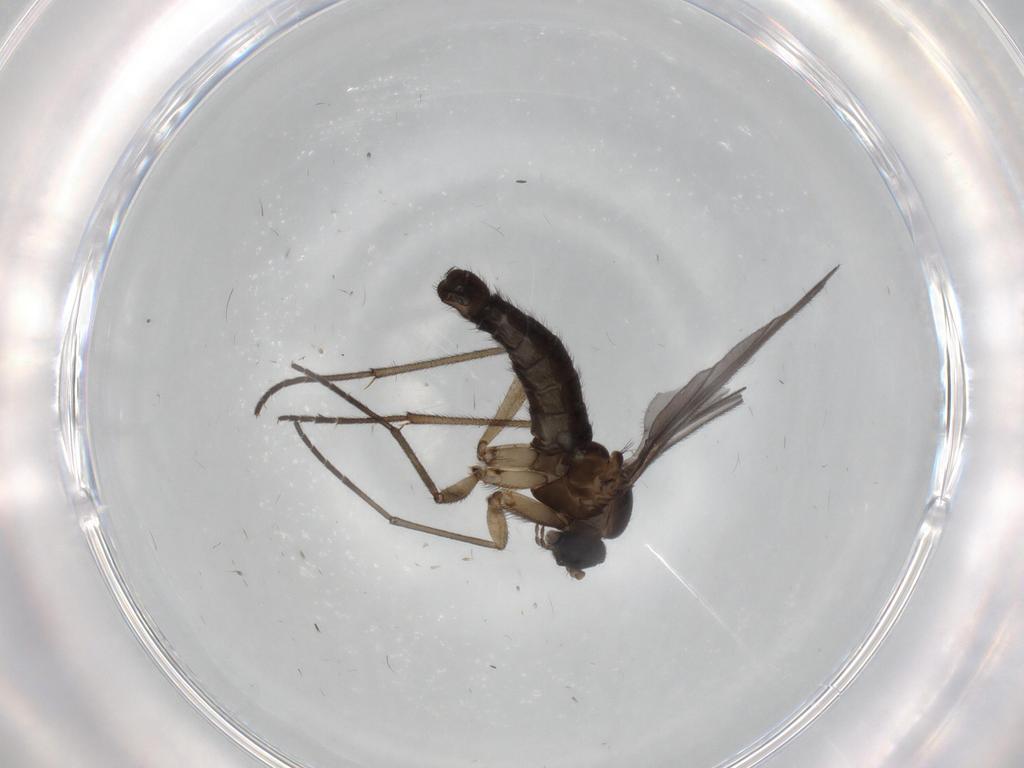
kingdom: Animalia
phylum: Arthropoda
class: Insecta
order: Diptera
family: Sciaridae
